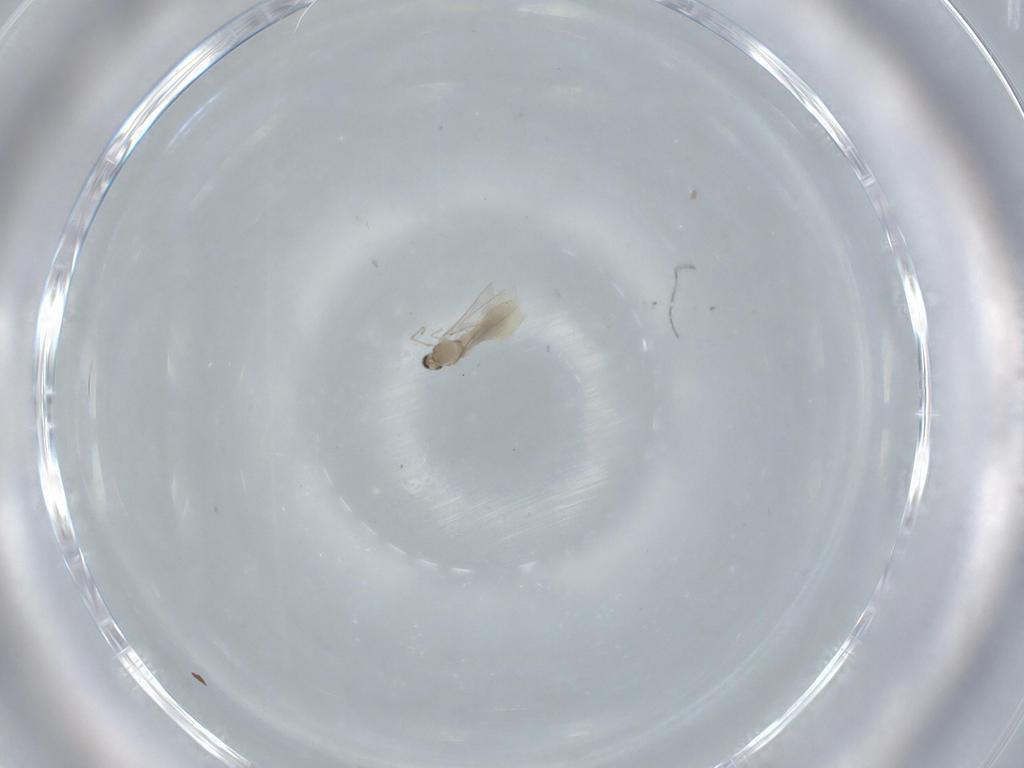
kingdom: Animalia
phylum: Arthropoda
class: Insecta
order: Diptera
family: Cecidomyiidae
